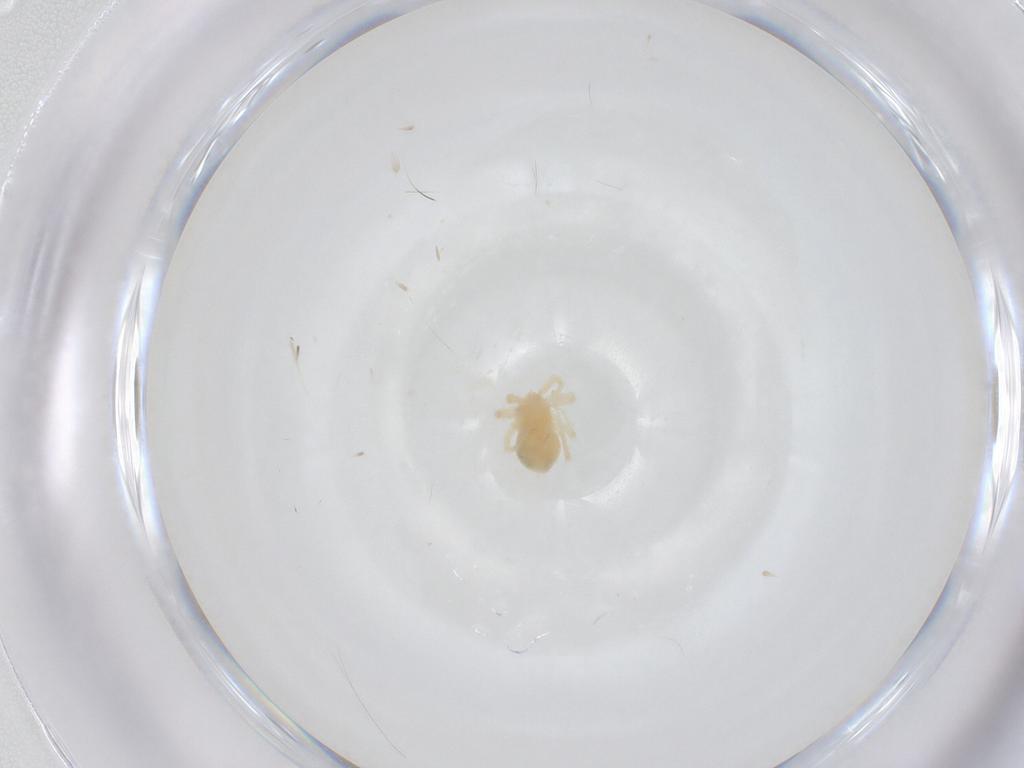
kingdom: Animalia
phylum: Arthropoda
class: Arachnida
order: Trombidiformes
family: Anystidae
